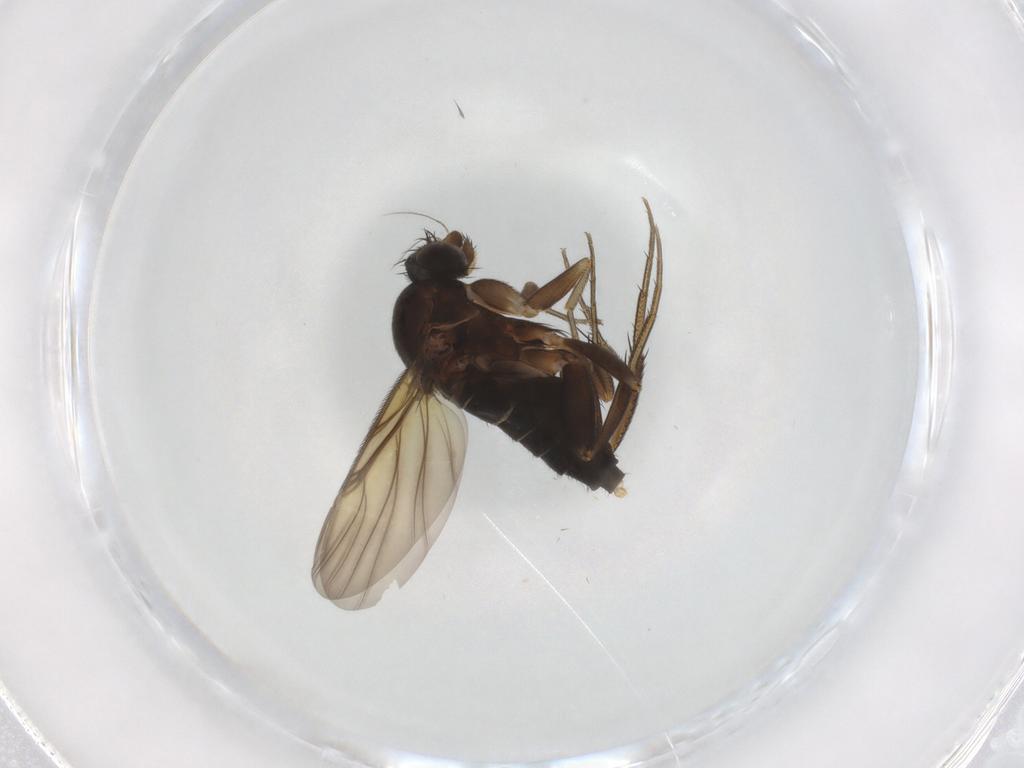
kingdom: Animalia
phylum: Arthropoda
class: Insecta
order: Diptera
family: Phoridae
